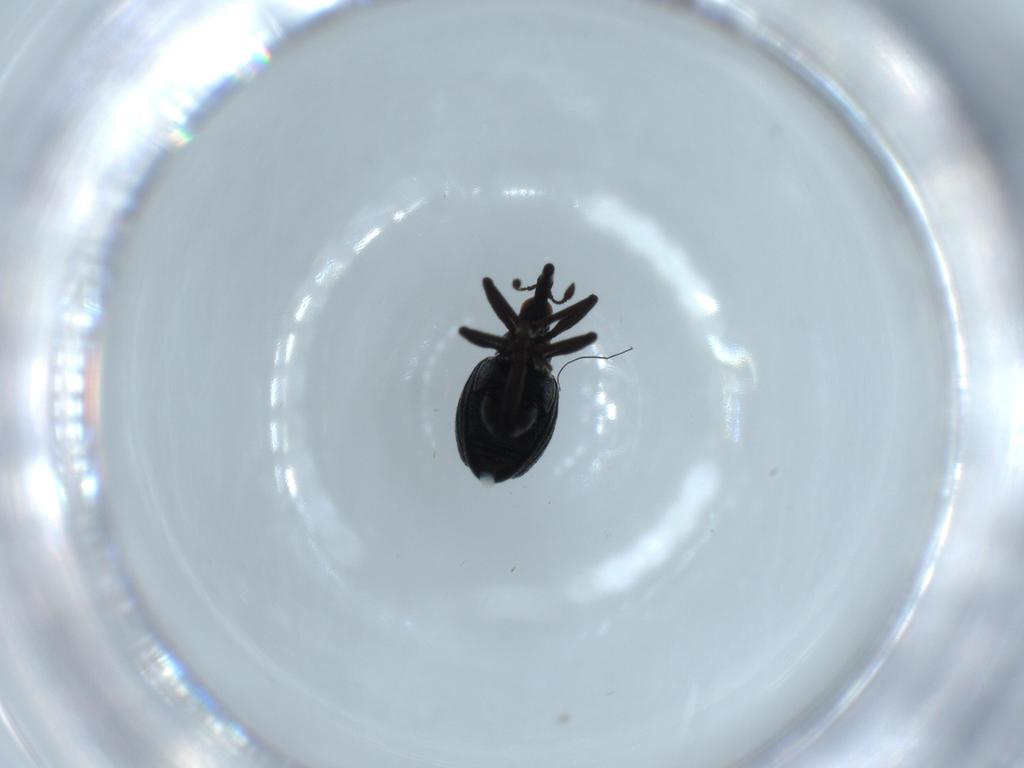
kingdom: Animalia
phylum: Arthropoda
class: Insecta
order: Coleoptera
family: Brentidae
